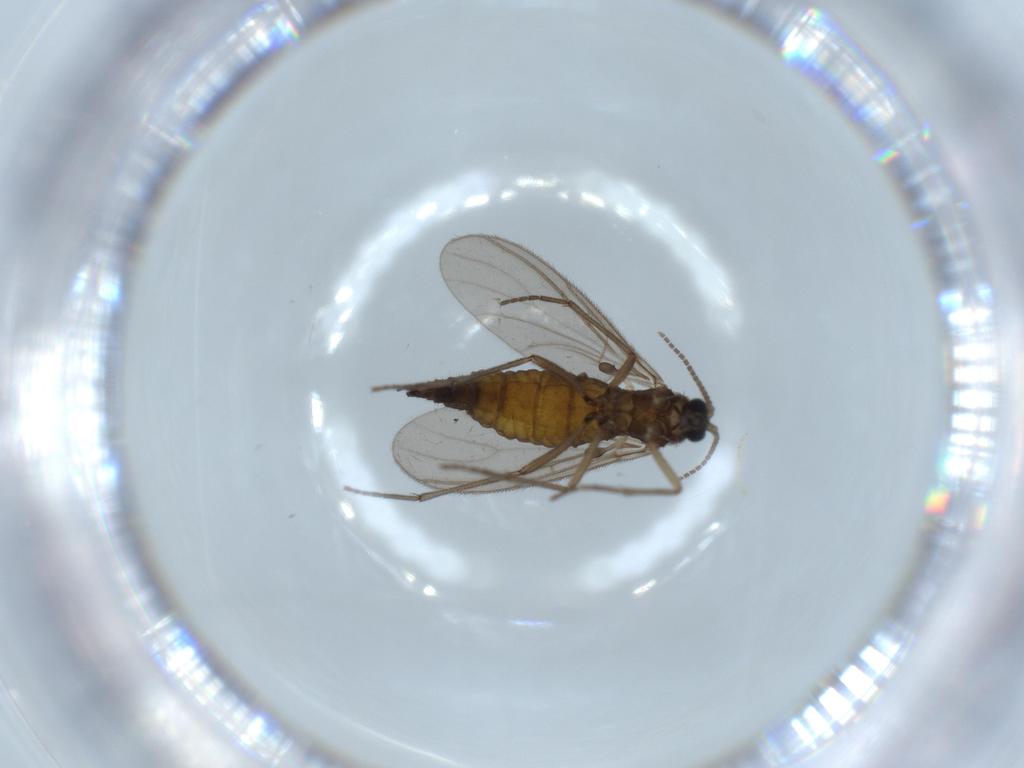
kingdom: Animalia
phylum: Arthropoda
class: Insecta
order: Diptera
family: Sciaridae
